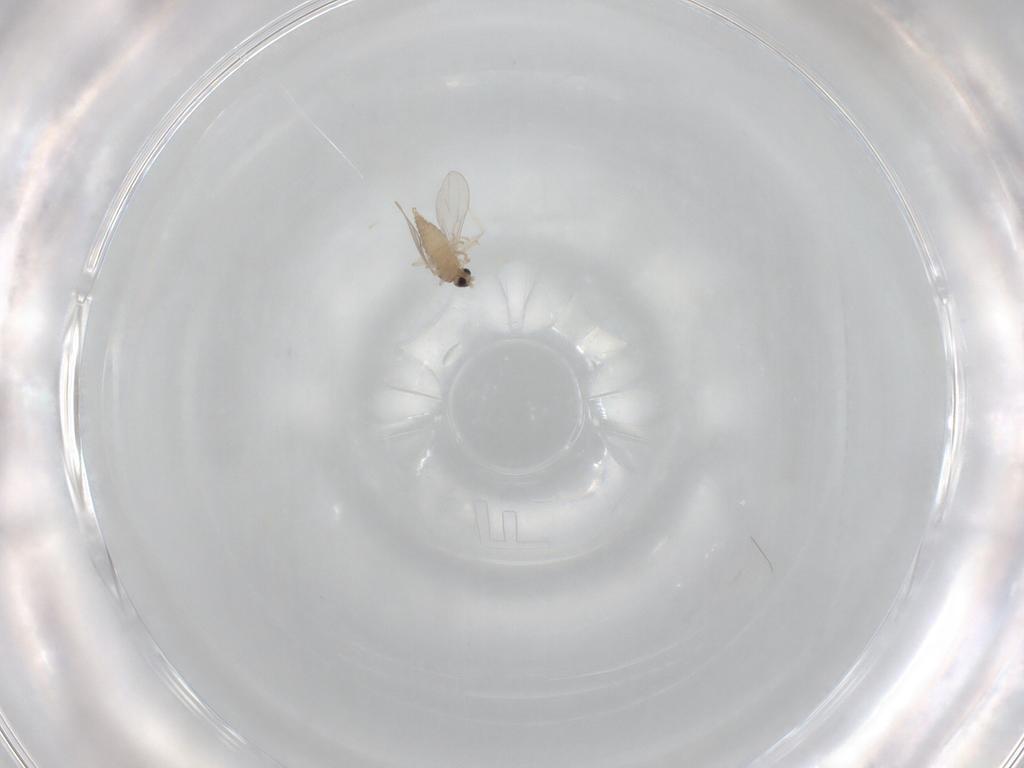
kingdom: Animalia
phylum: Arthropoda
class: Insecta
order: Diptera
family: Chloropidae
